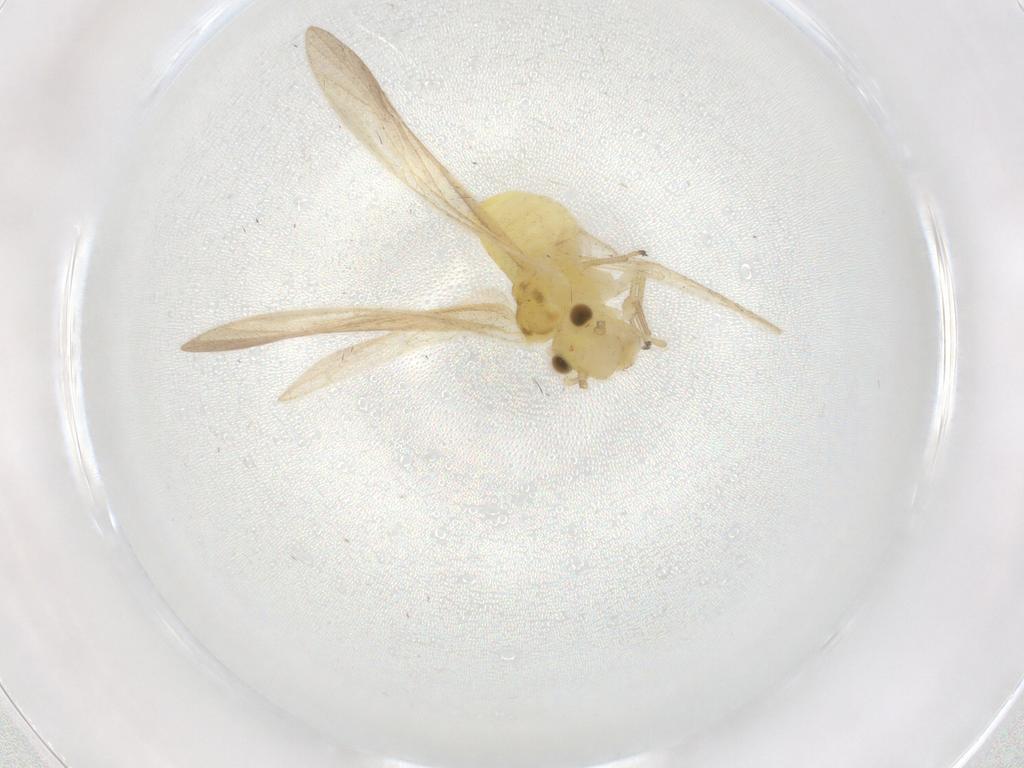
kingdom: Animalia
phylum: Arthropoda
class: Insecta
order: Psocodea
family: Caeciliusidae
